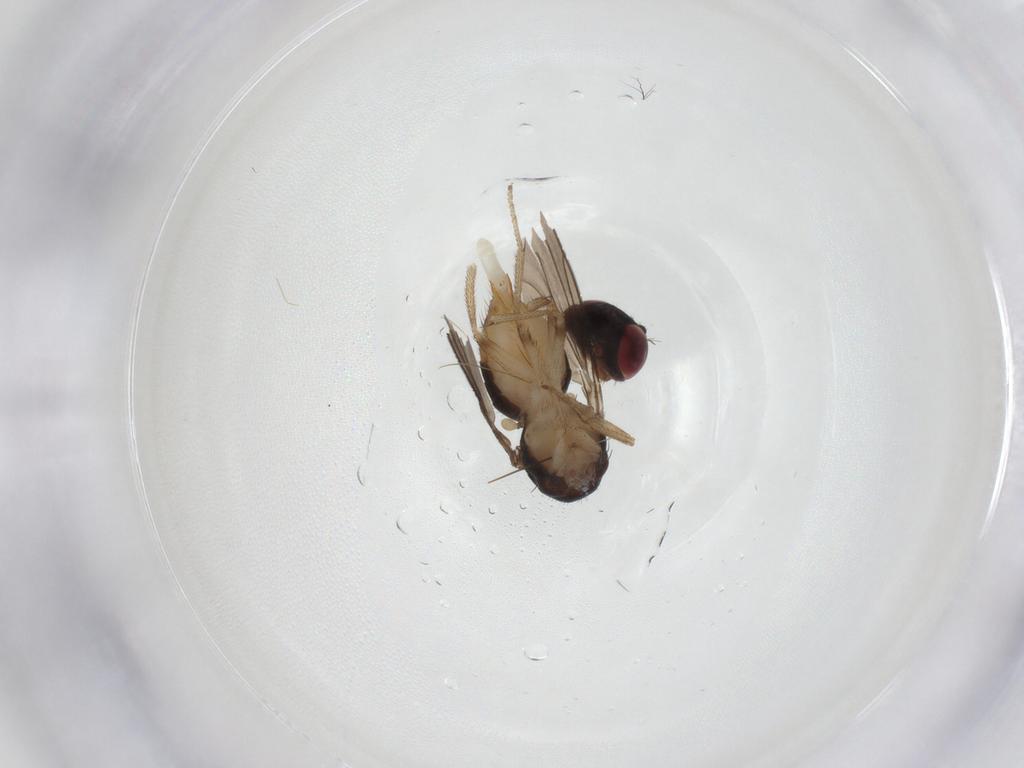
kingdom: Animalia
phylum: Arthropoda
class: Insecta
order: Diptera
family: Drosophilidae
